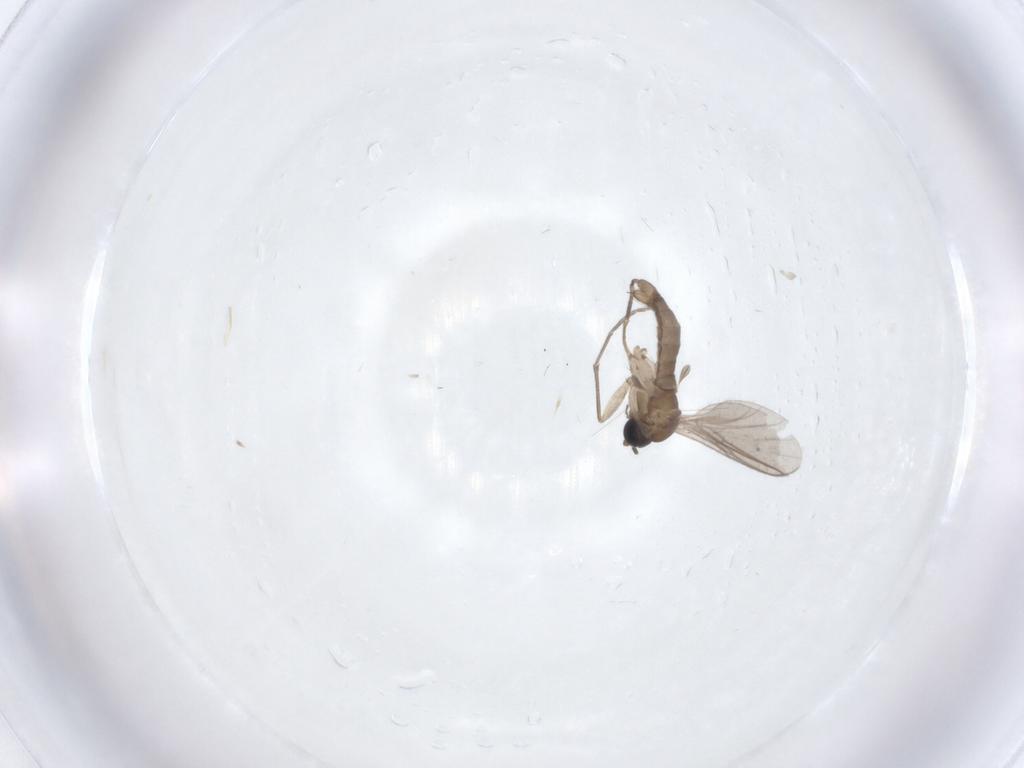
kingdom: Animalia
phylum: Arthropoda
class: Insecta
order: Diptera
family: Sciaridae
